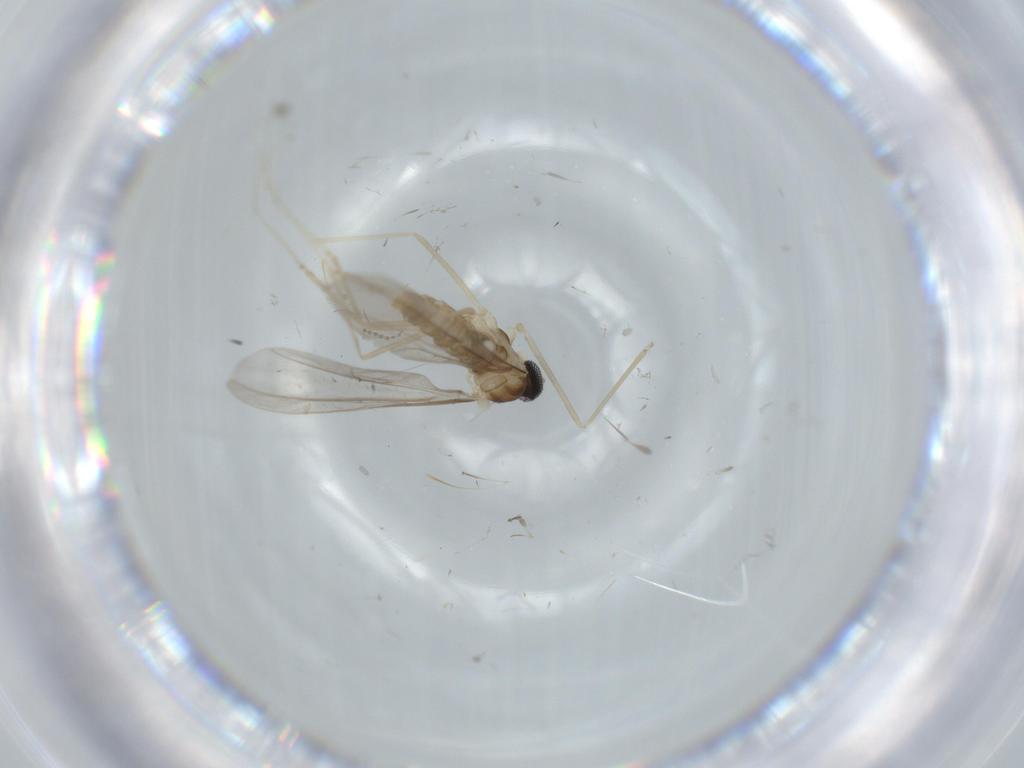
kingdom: Animalia
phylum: Arthropoda
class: Insecta
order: Diptera
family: Cecidomyiidae
